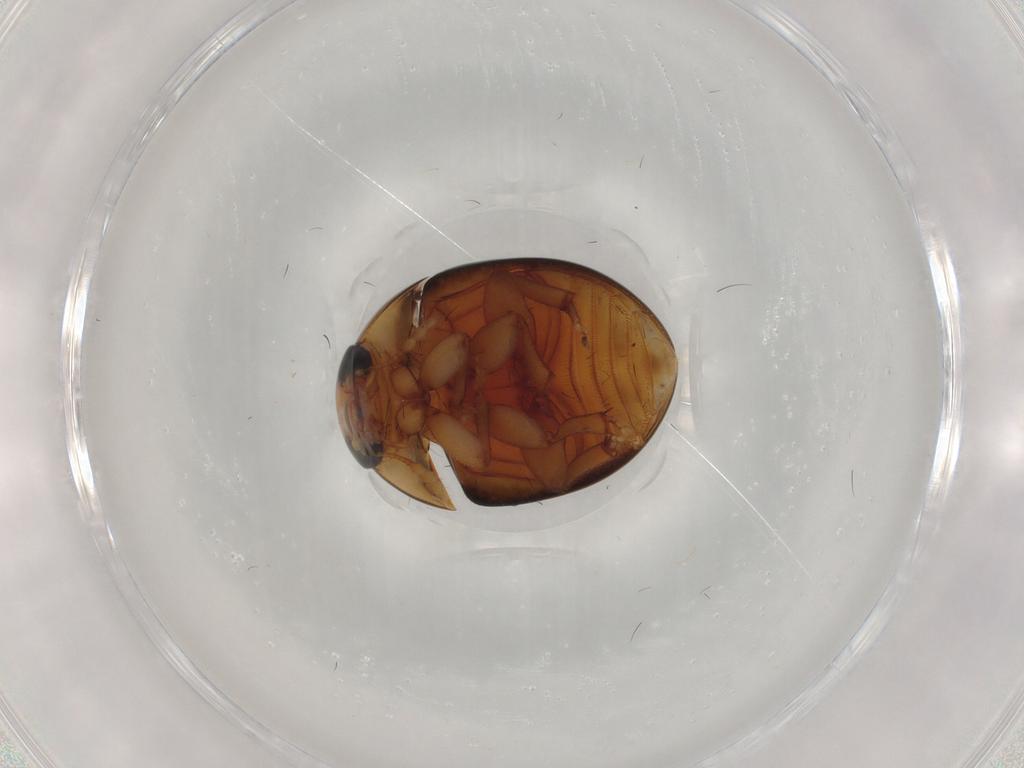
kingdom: Animalia
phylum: Arthropoda
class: Insecta
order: Coleoptera
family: Phalacridae
